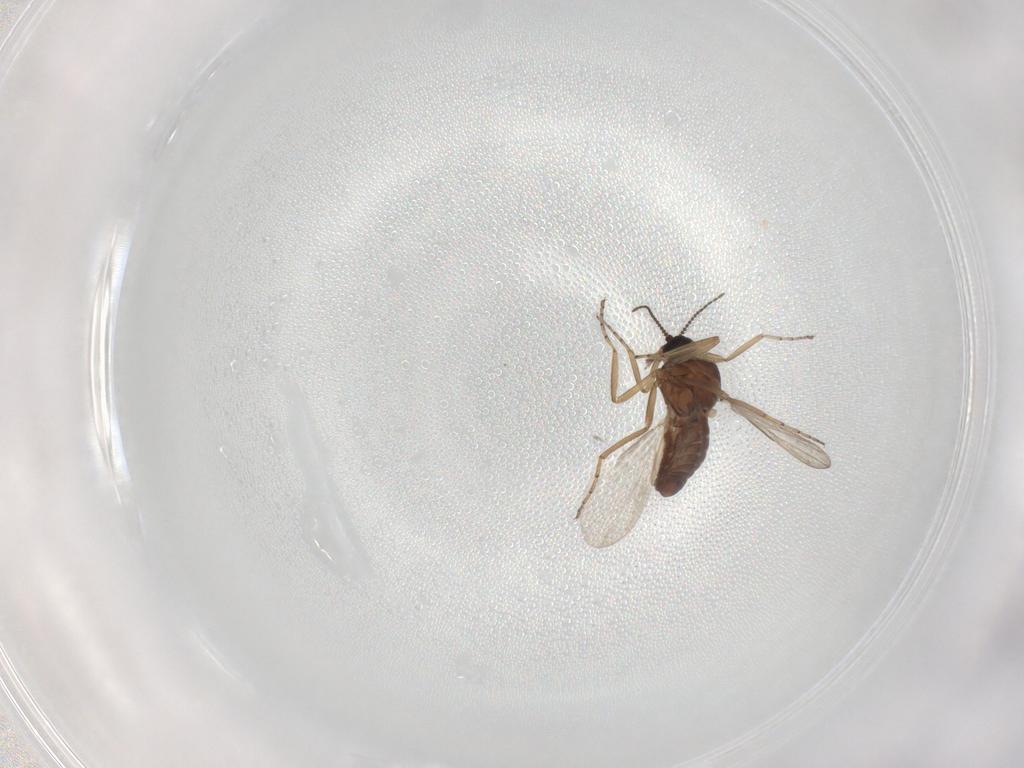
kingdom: Animalia
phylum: Arthropoda
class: Insecta
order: Diptera
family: Ceratopogonidae
